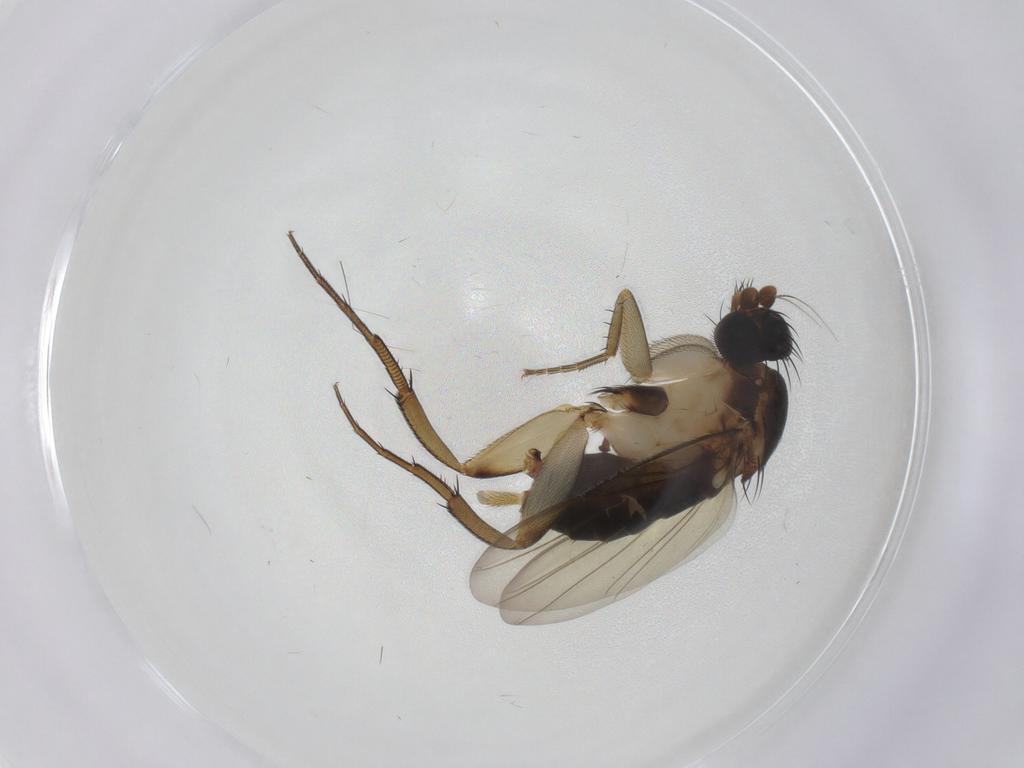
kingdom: Animalia
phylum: Arthropoda
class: Insecta
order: Diptera
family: Phoridae
